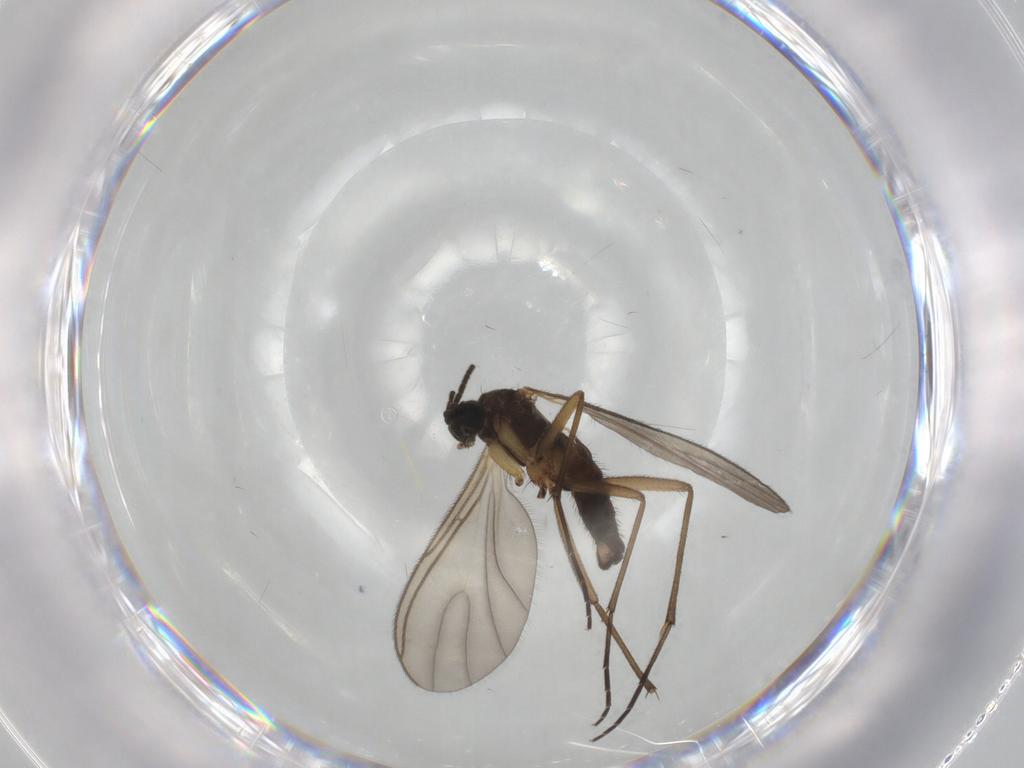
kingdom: Animalia
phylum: Arthropoda
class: Insecta
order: Diptera
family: Sciaridae
